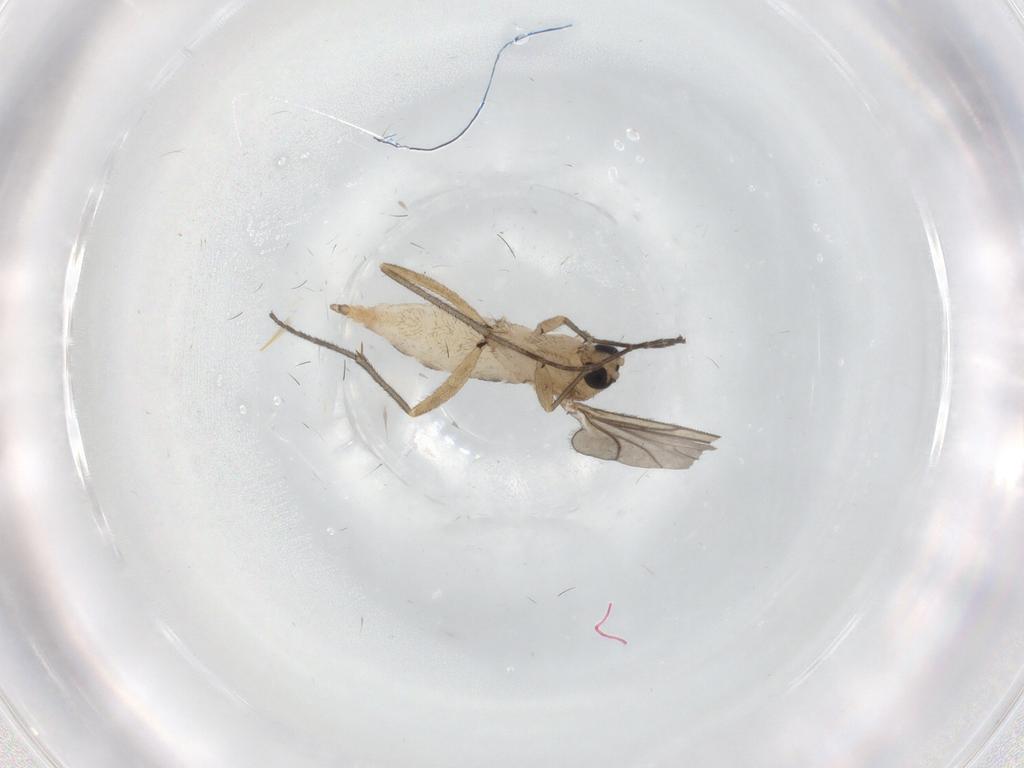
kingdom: Animalia
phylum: Arthropoda
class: Insecta
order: Diptera
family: Sciaridae
